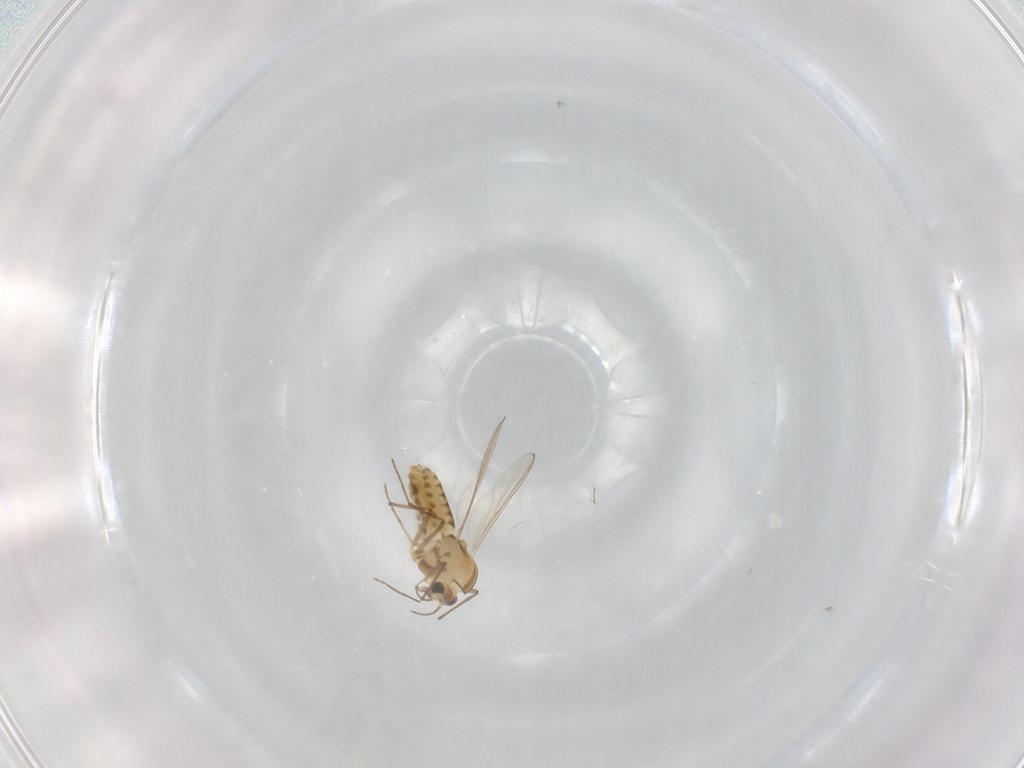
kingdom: Animalia
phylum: Arthropoda
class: Insecta
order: Diptera
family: Chironomidae
